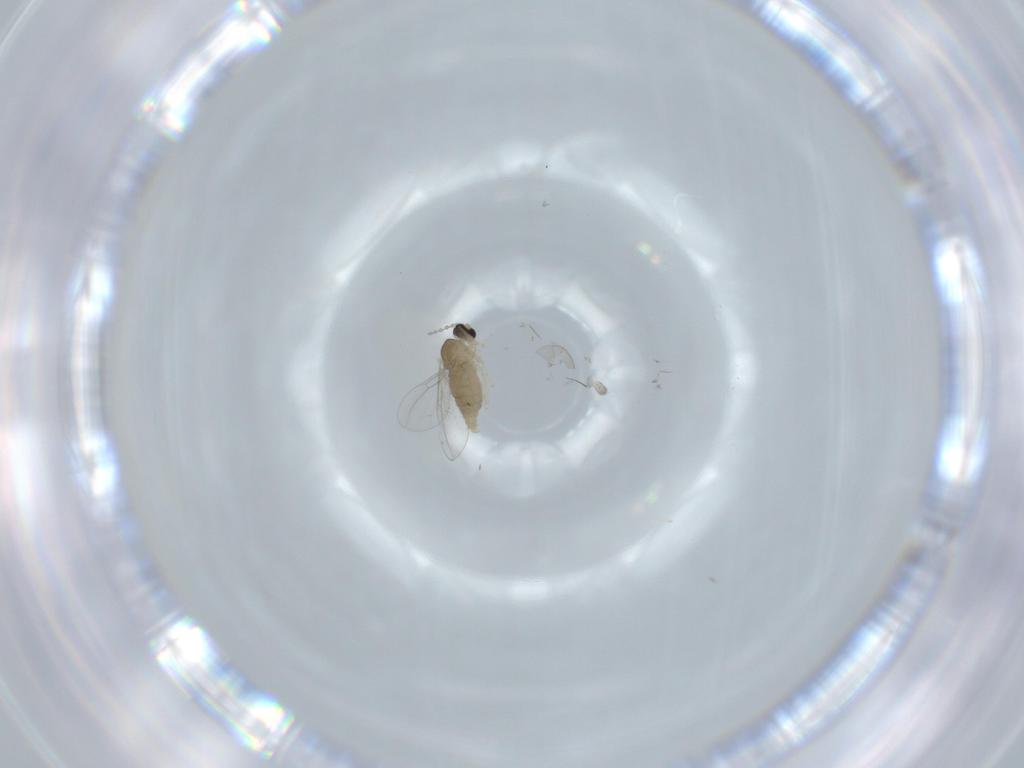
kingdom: Animalia
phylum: Arthropoda
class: Insecta
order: Diptera
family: Cecidomyiidae
